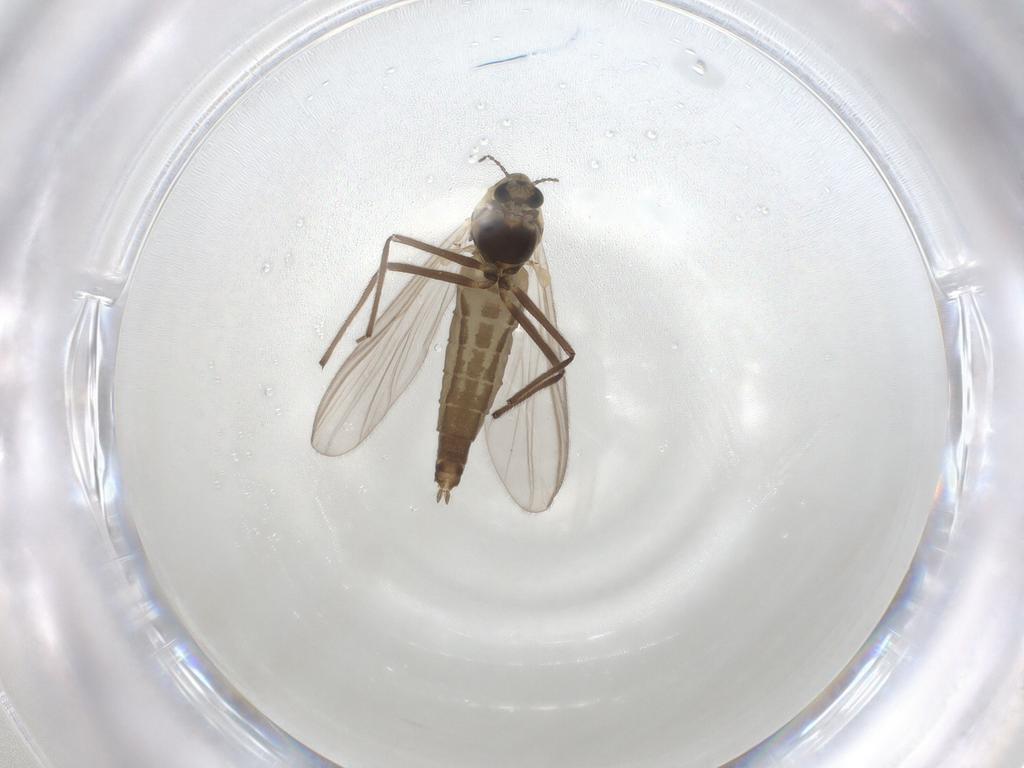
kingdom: Animalia
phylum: Arthropoda
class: Insecta
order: Diptera
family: Chironomidae
